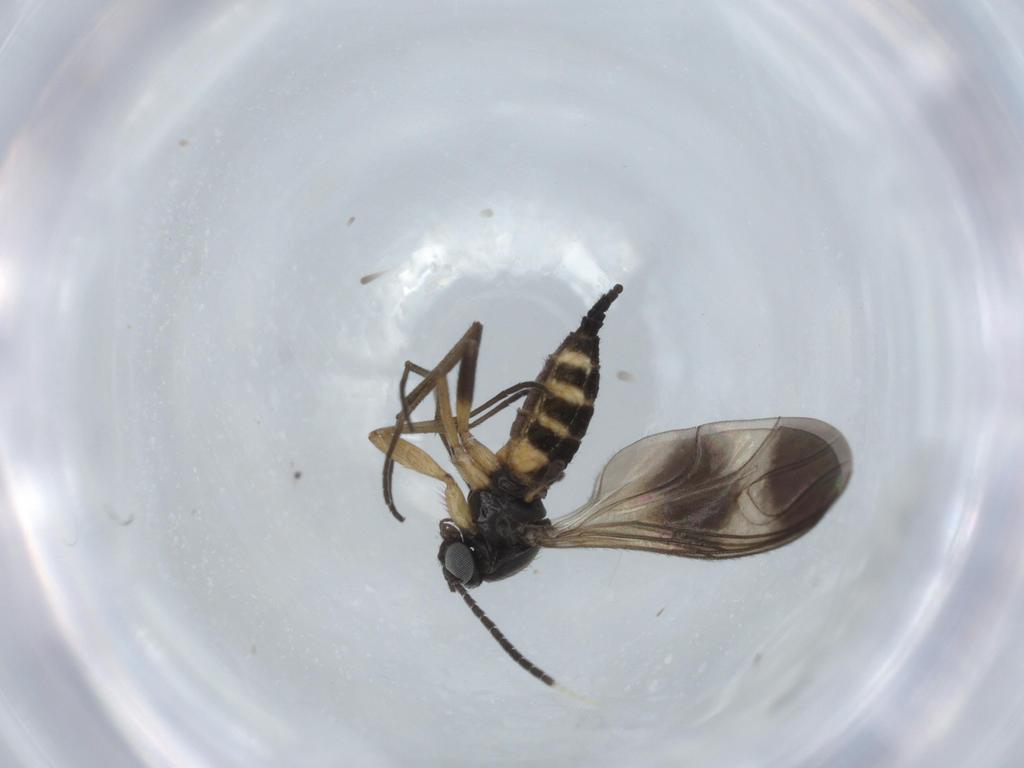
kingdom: Animalia
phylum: Arthropoda
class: Insecta
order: Diptera
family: Sciaridae
